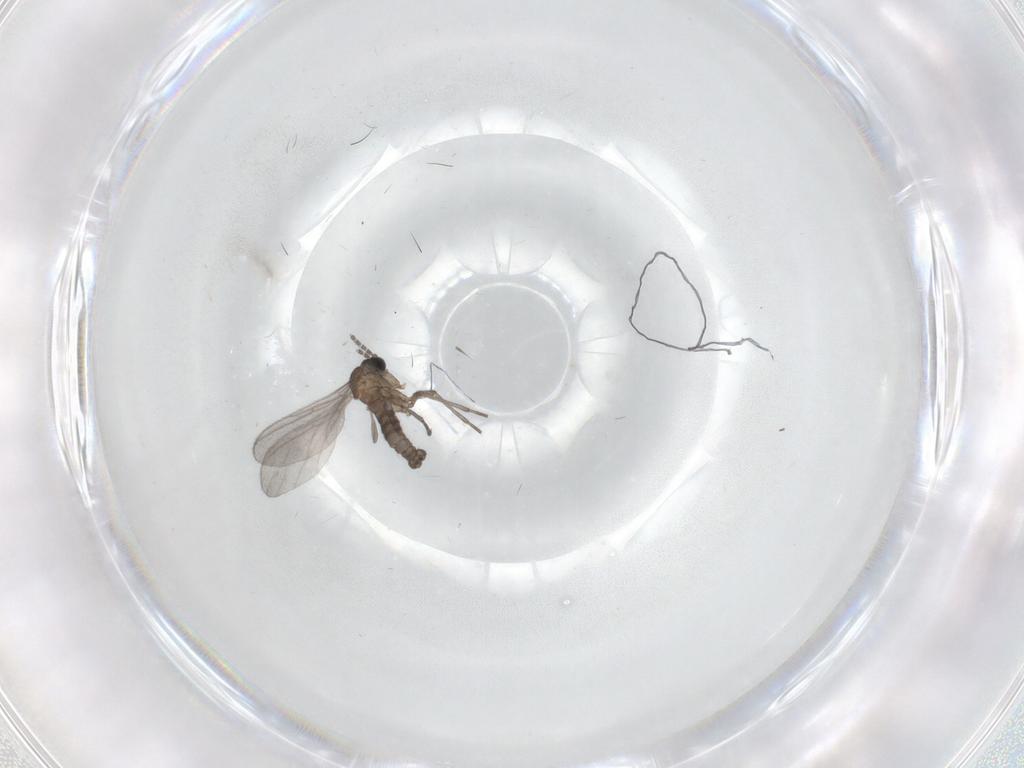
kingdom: Animalia
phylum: Arthropoda
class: Insecta
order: Diptera
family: Sciaridae
